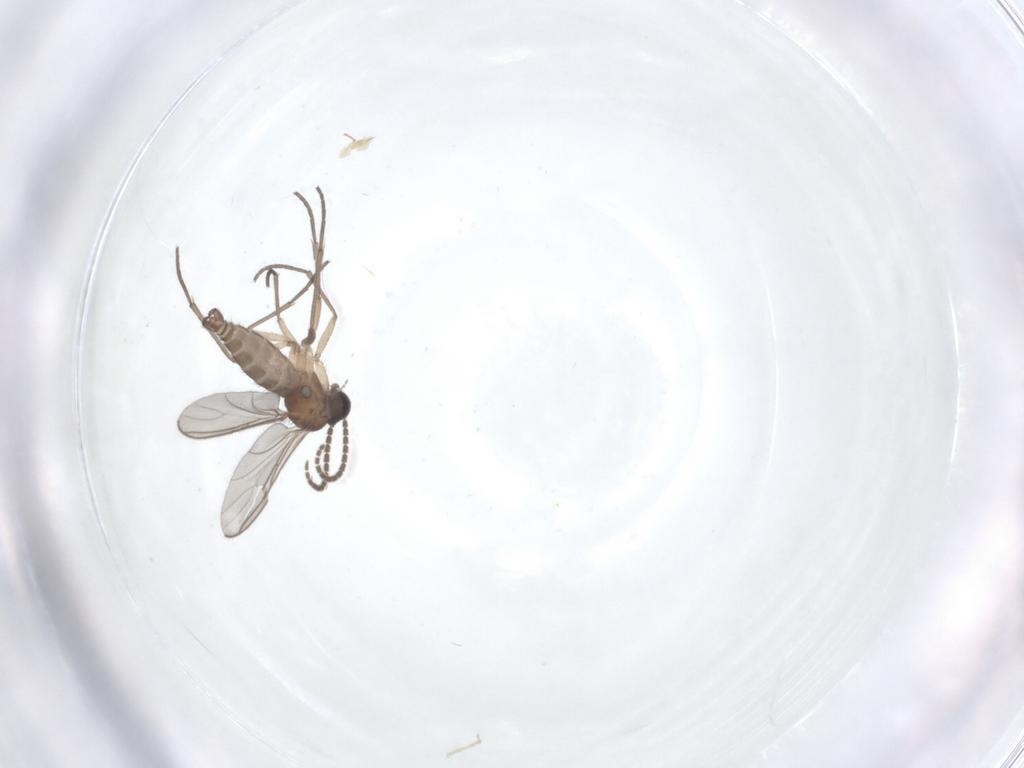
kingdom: Animalia
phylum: Arthropoda
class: Insecta
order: Diptera
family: Sciaridae
